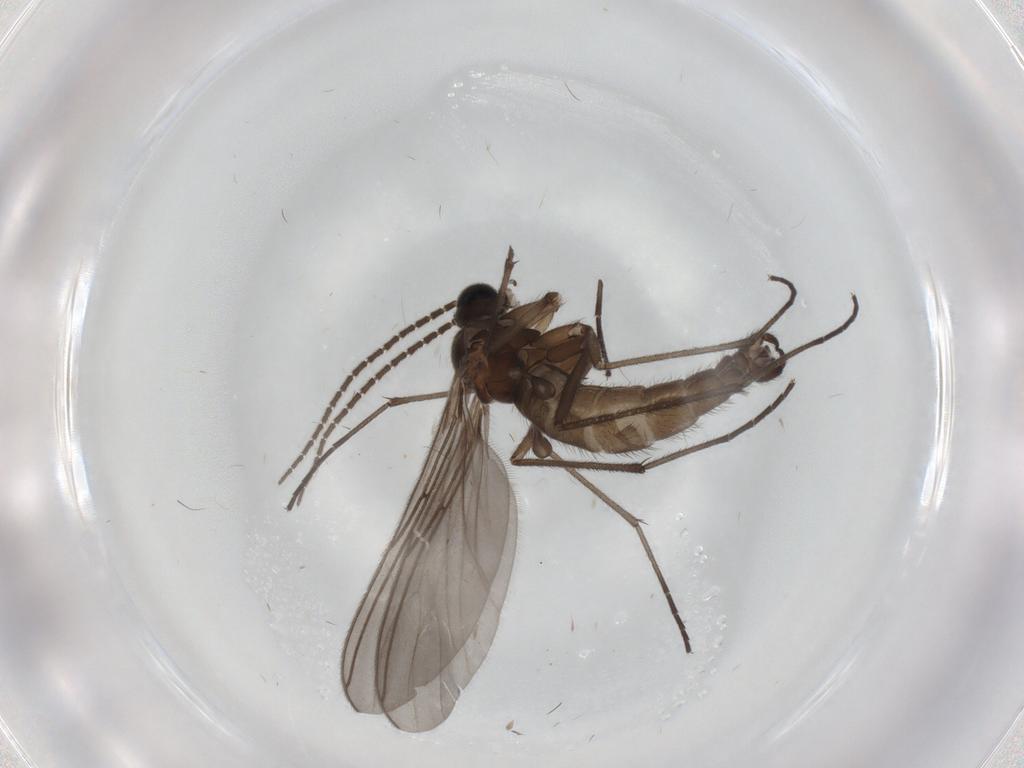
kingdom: Animalia
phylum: Arthropoda
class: Insecta
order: Diptera
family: Sciaridae
